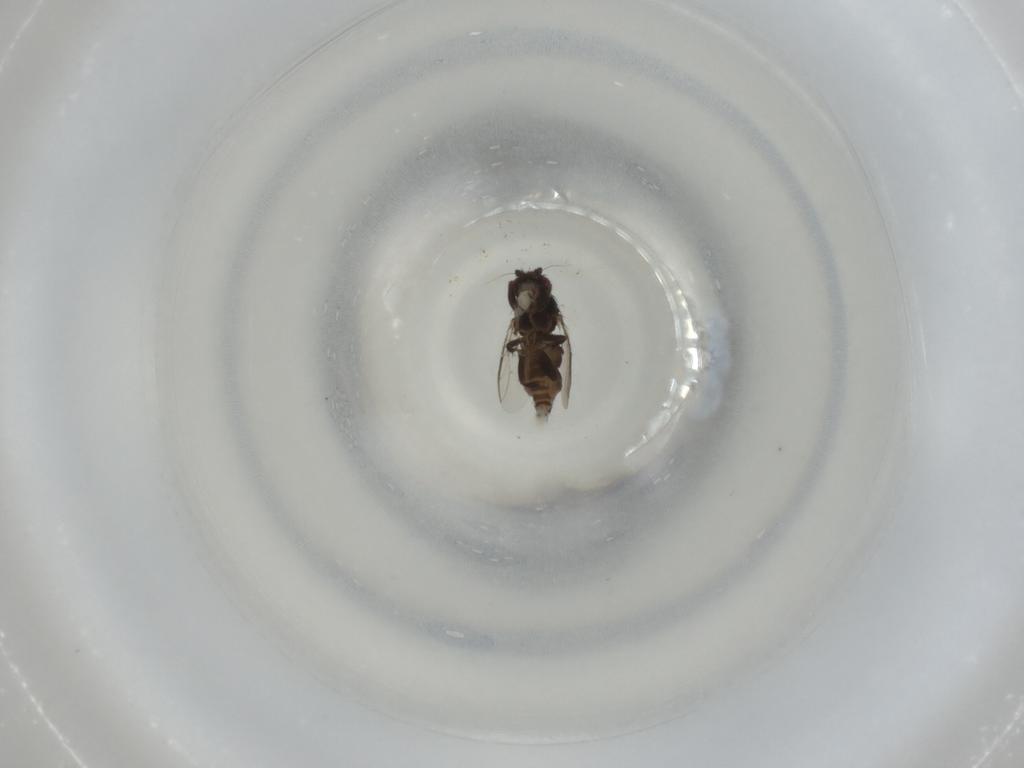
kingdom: Animalia
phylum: Arthropoda
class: Insecta
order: Diptera
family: Sphaeroceridae
